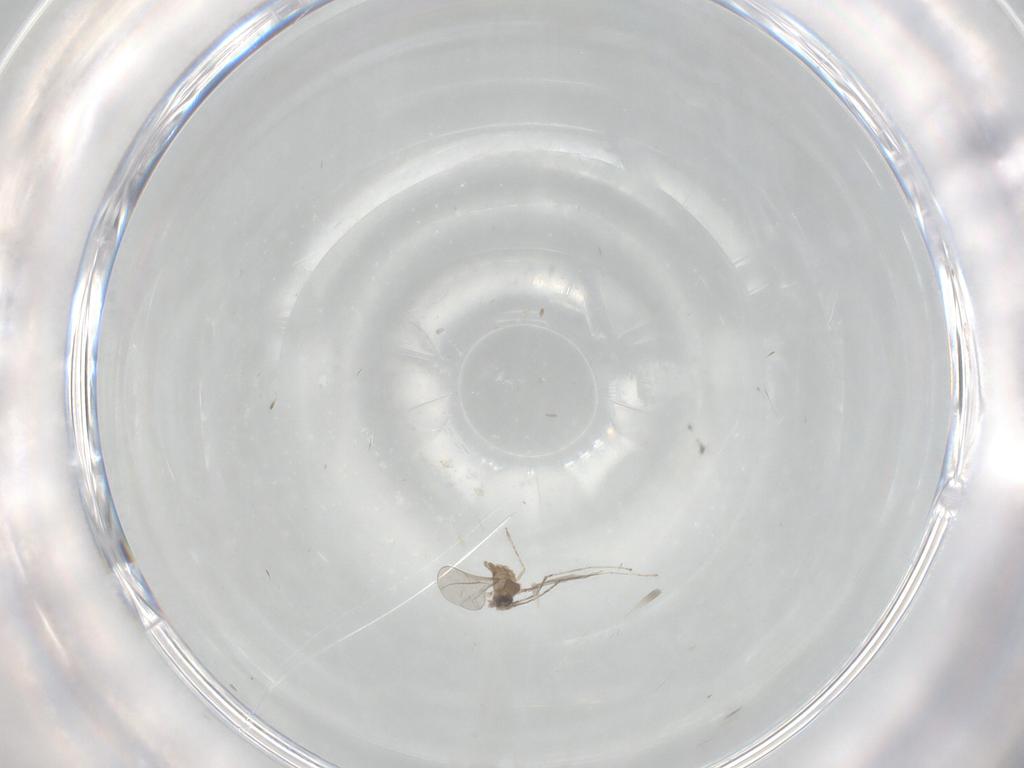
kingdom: Animalia
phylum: Arthropoda
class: Insecta
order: Diptera
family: Cecidomyiidae
